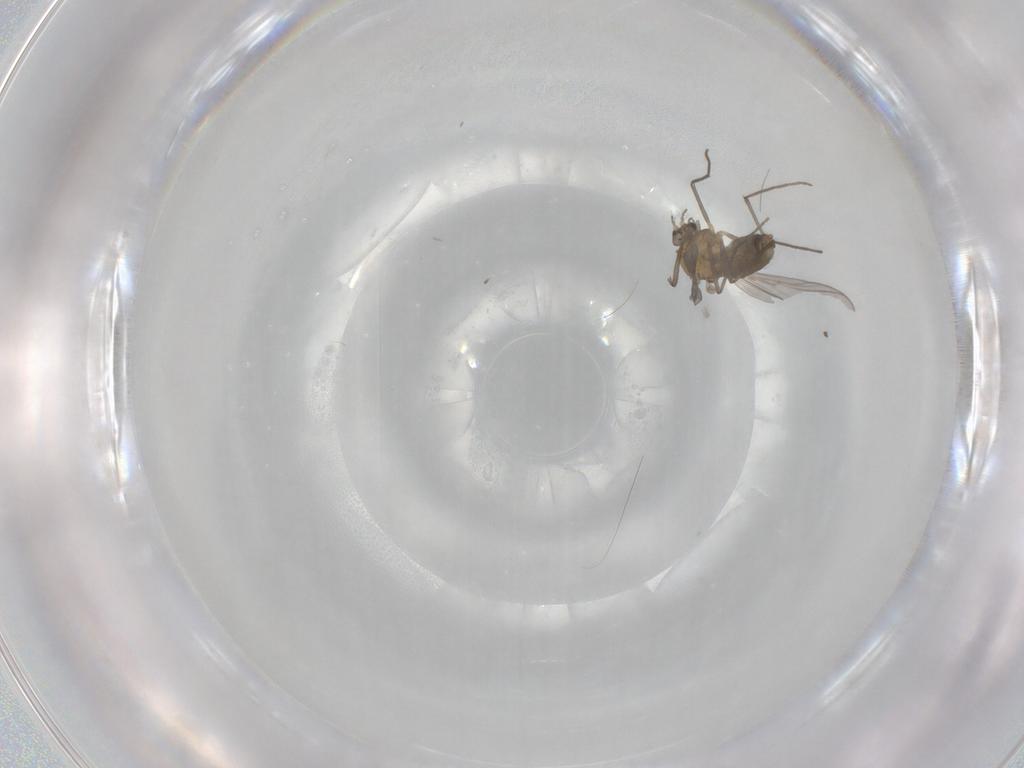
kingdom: Animalia
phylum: Arthropoda
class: Insecta
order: Diptera
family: Chironomidae
